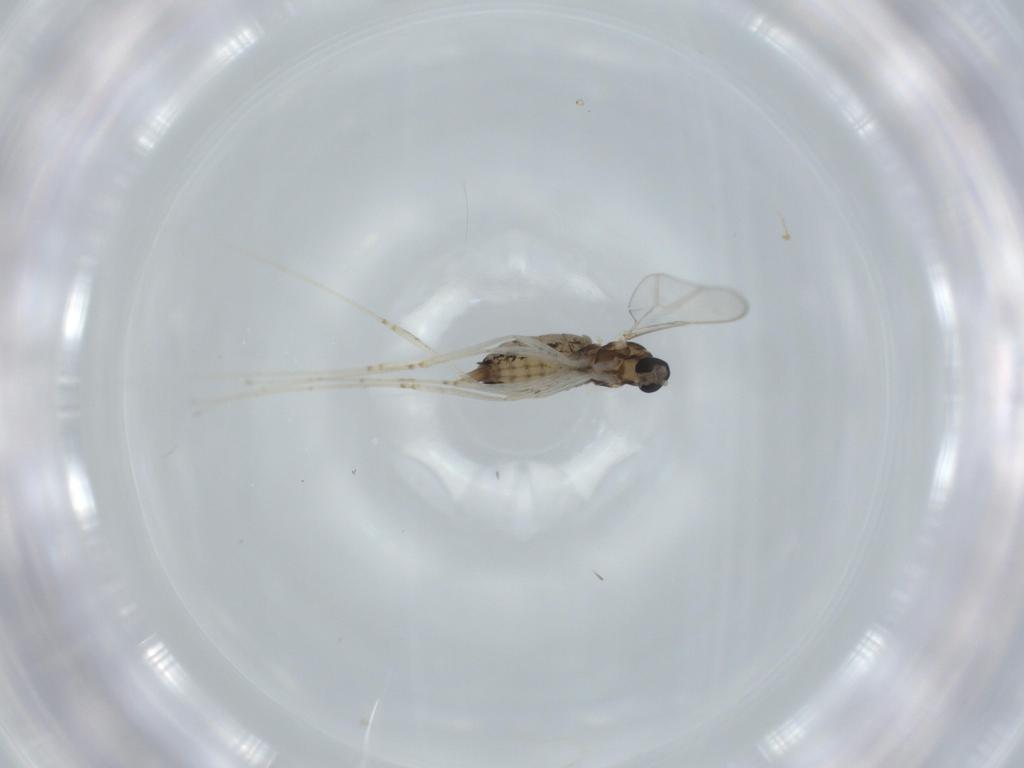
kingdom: Animalia
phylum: Arthropoda
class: Insecta
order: Diptera
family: Cecidomyiidae
